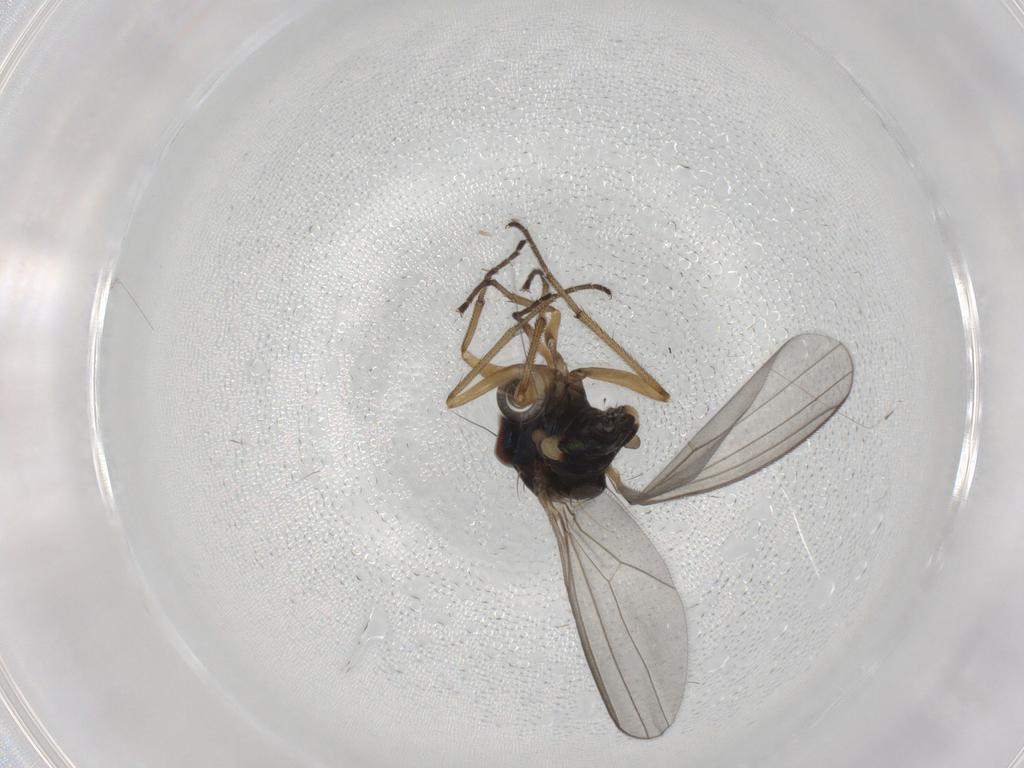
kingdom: Animalia
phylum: Arthropoda
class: Insecta
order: Diptera
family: Dolichopodidae
